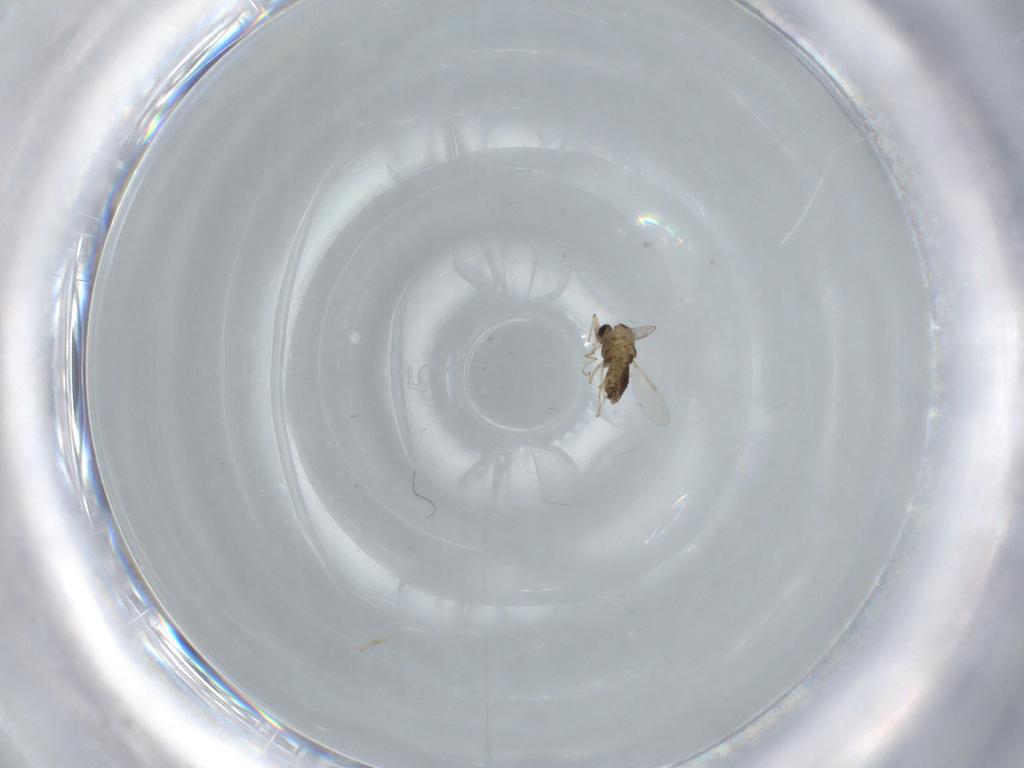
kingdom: Animalia
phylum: Arthropoda
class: Insecta
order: Diptera
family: Chironomidae
